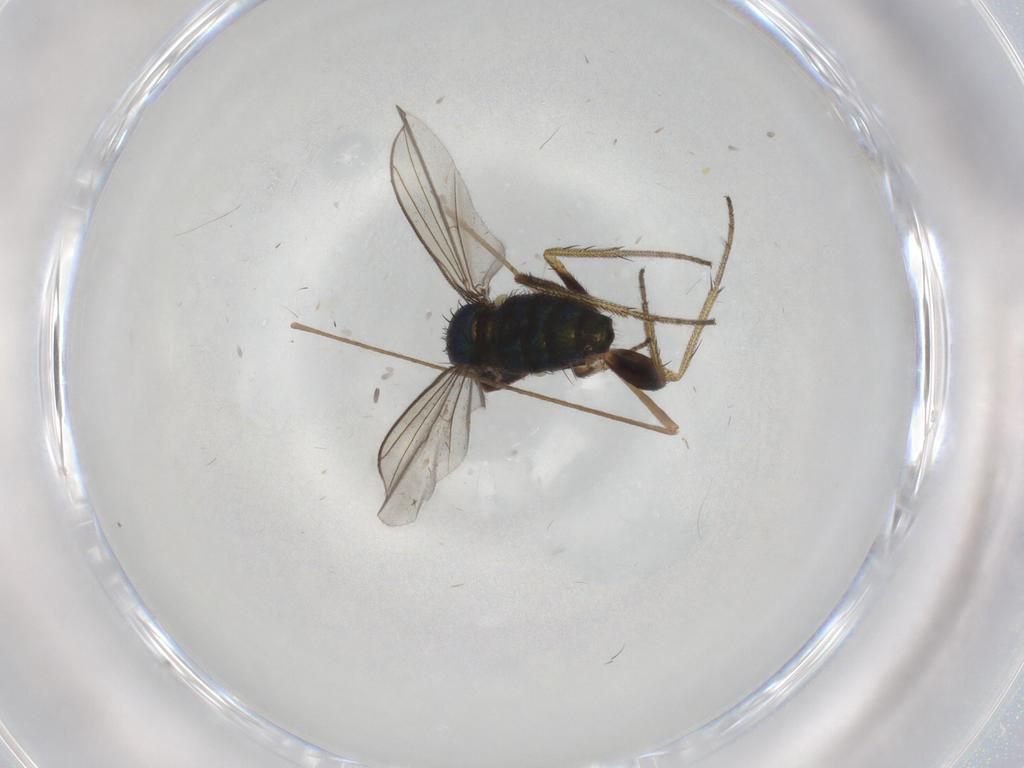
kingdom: Animalia
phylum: Arthropoda
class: Insecta
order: Diptera
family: Limoniidae
